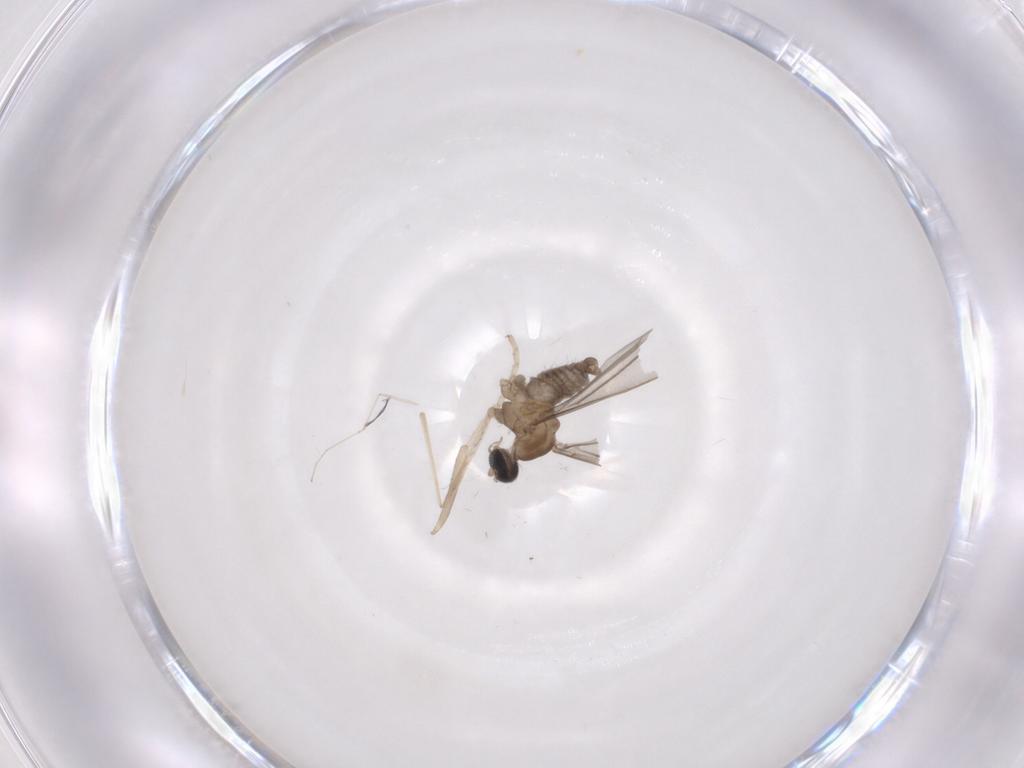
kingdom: Animalia
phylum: Arthropoda
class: Insecta
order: Diptera
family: Cecidomyiidae
